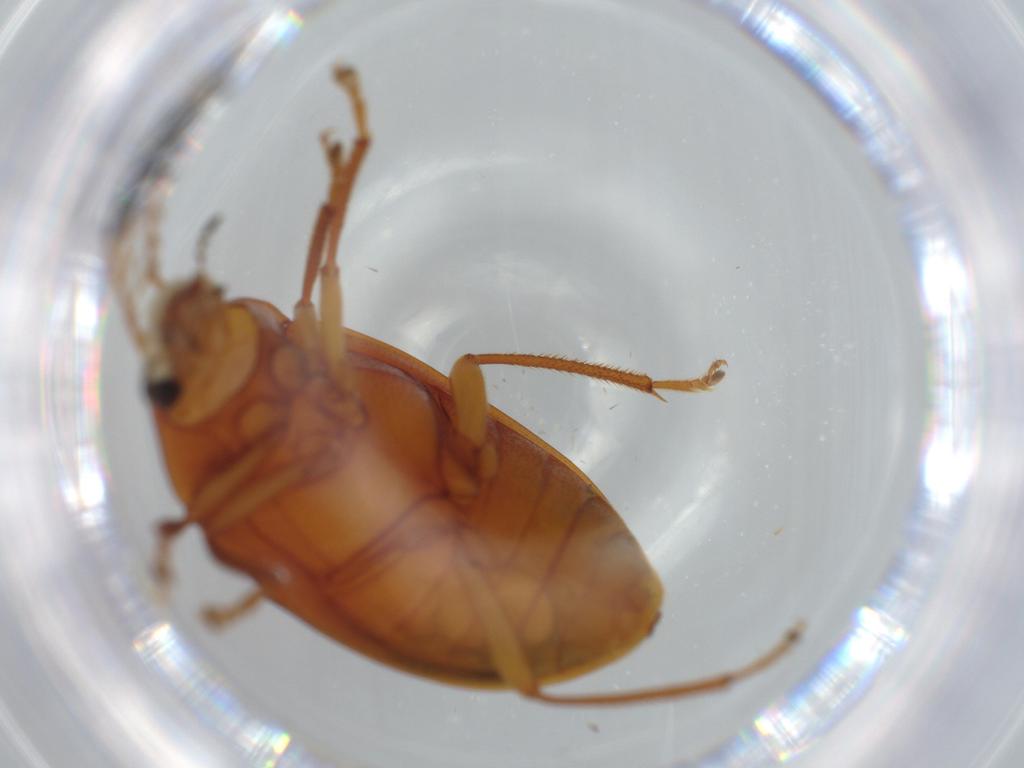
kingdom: Animalia
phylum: Arthropoda
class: Insecta
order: Coleoptera
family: Ptilodactylidae
